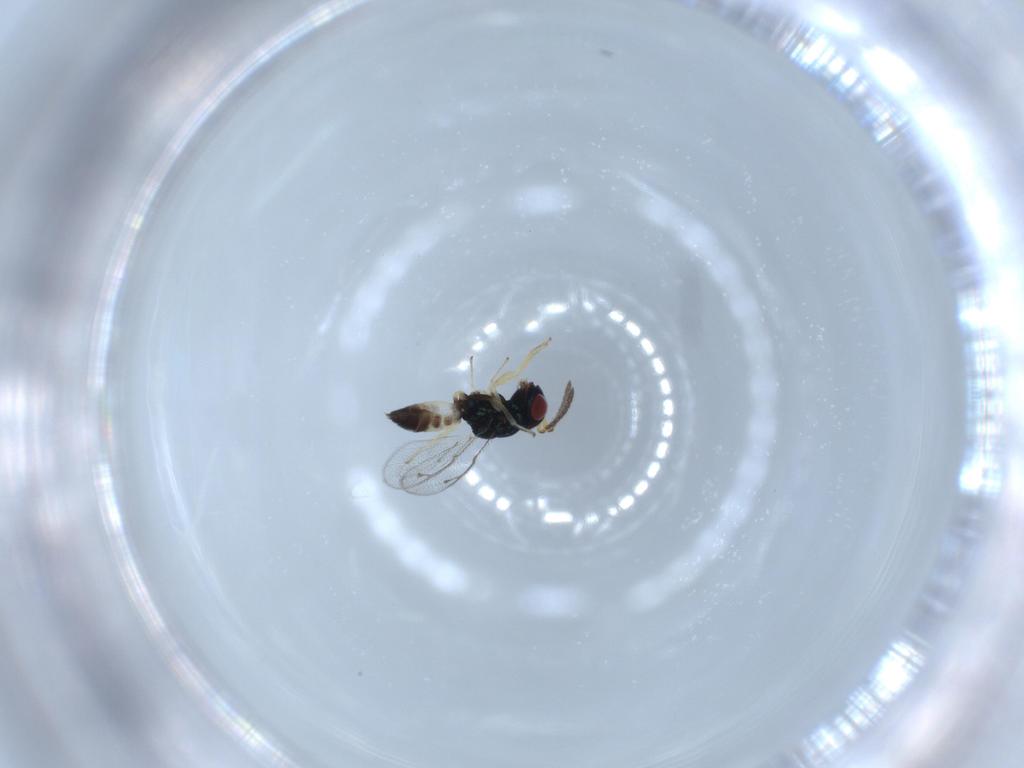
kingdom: Animalia
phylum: Arthropoda
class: Insecta
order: Hymenoptera
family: Pteromalidae
